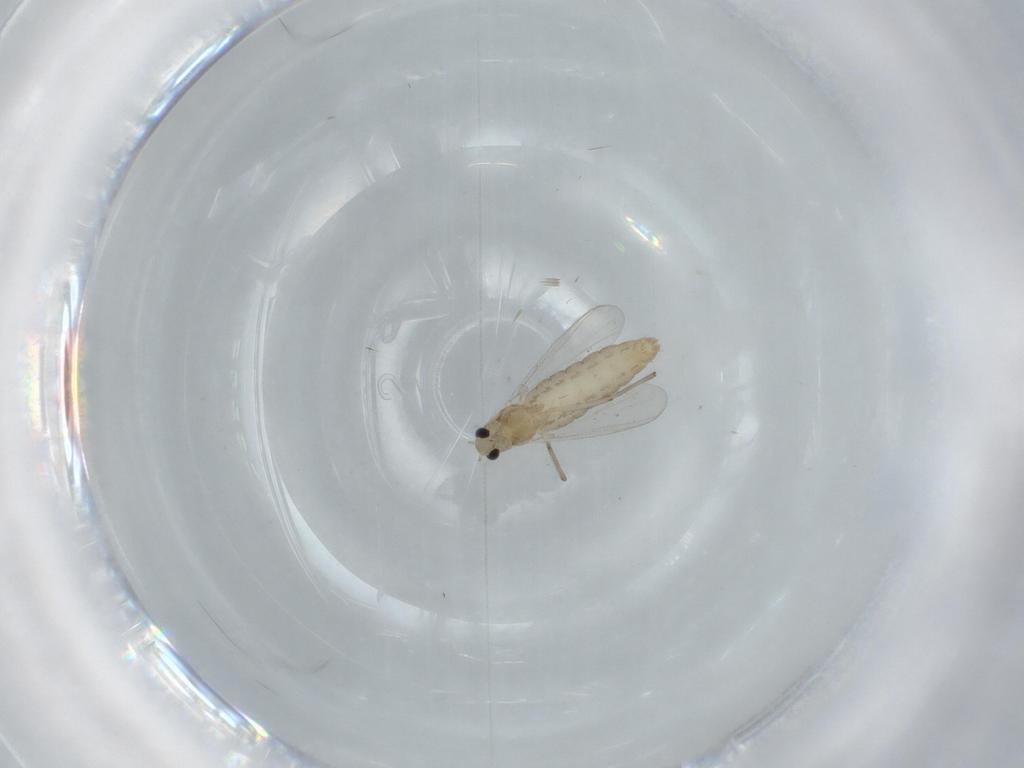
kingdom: Animalia
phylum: Arthropoda
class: Insecta
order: Diptera
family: Chironomidae
